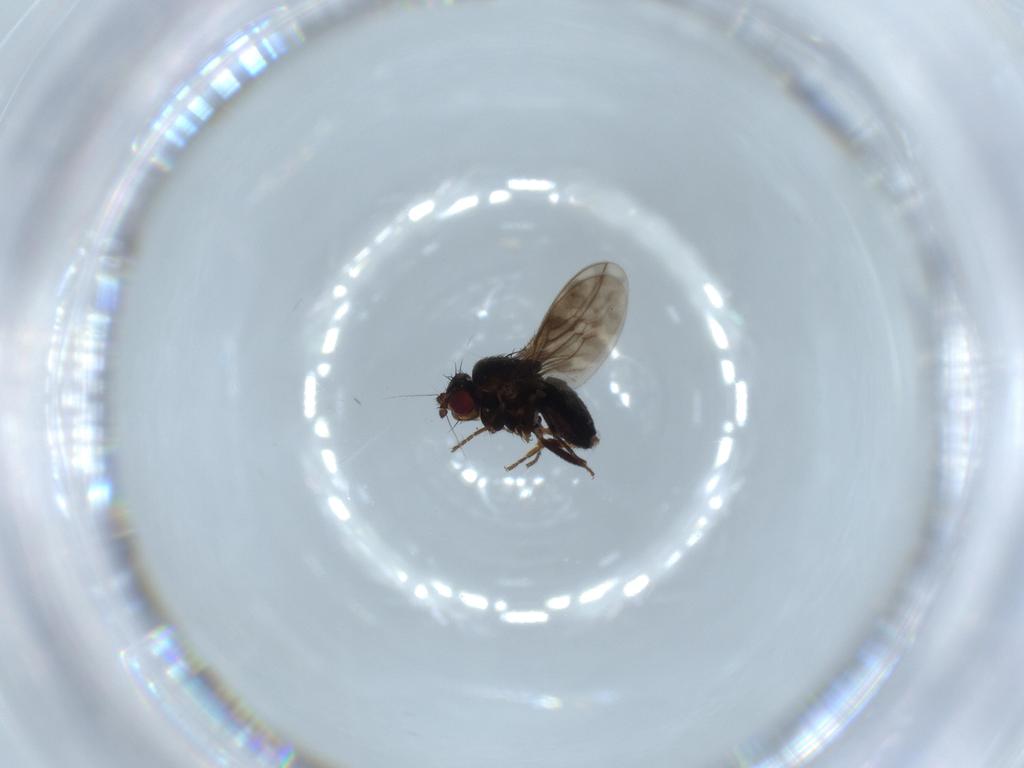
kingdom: Animalia
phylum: Arthropoda
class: Insecta
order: Diptera
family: Sphaeroceridae
